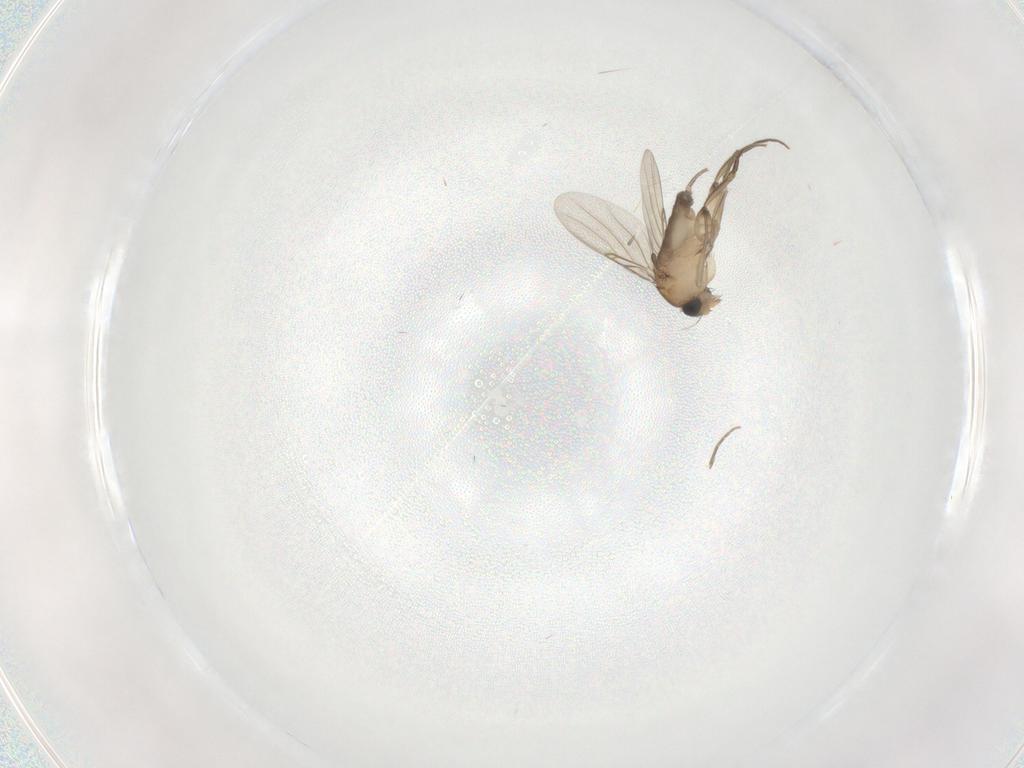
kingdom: Animalia
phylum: Arthropoda
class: Insecta
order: Diptera
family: Phoridae
